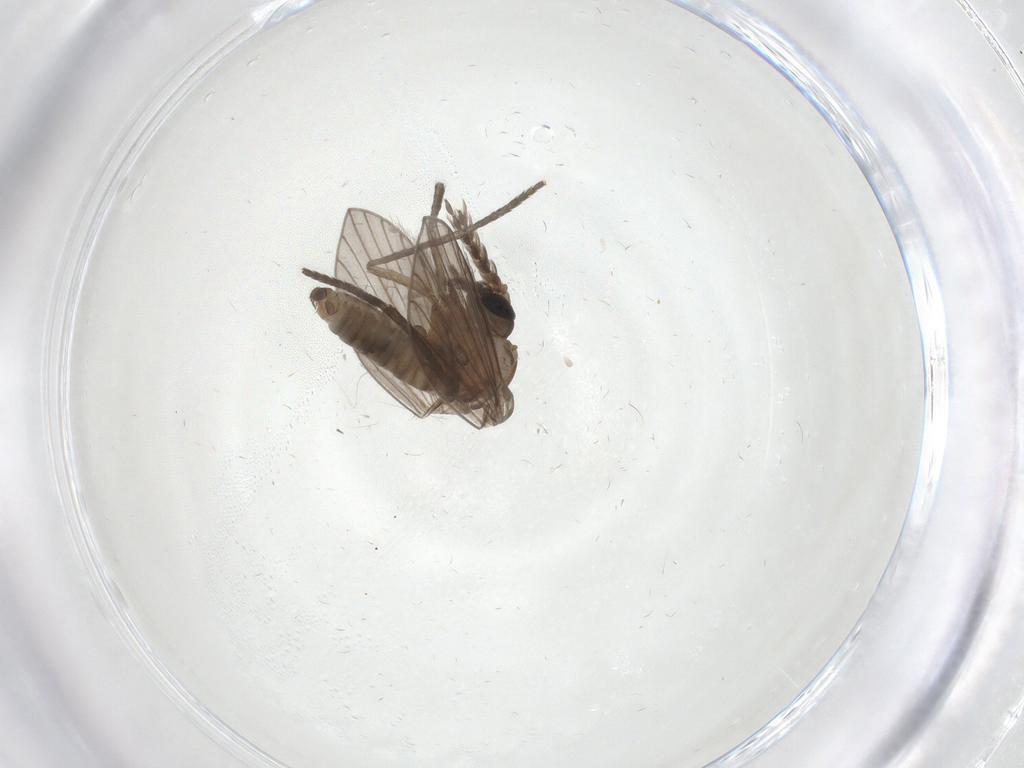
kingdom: Animalia
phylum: Arthropoda
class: Insecta
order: Diptera
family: Psychodidae
